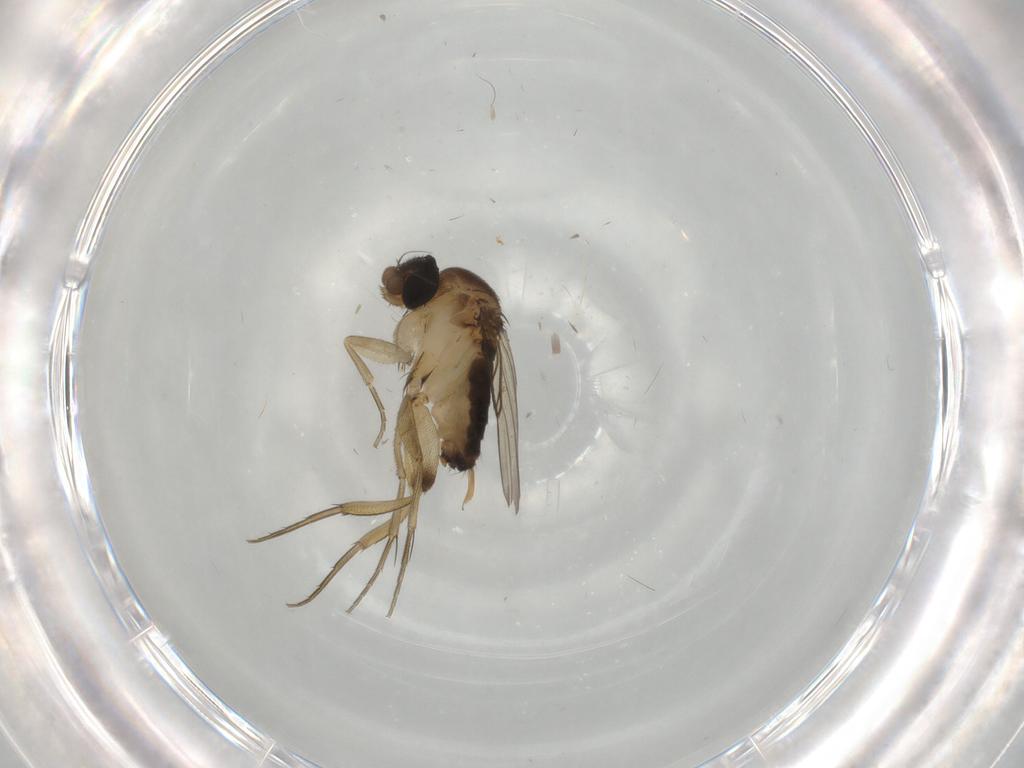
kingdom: Animalia
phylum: Arthropoda
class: Insecta
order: Diptera
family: Phoridae
